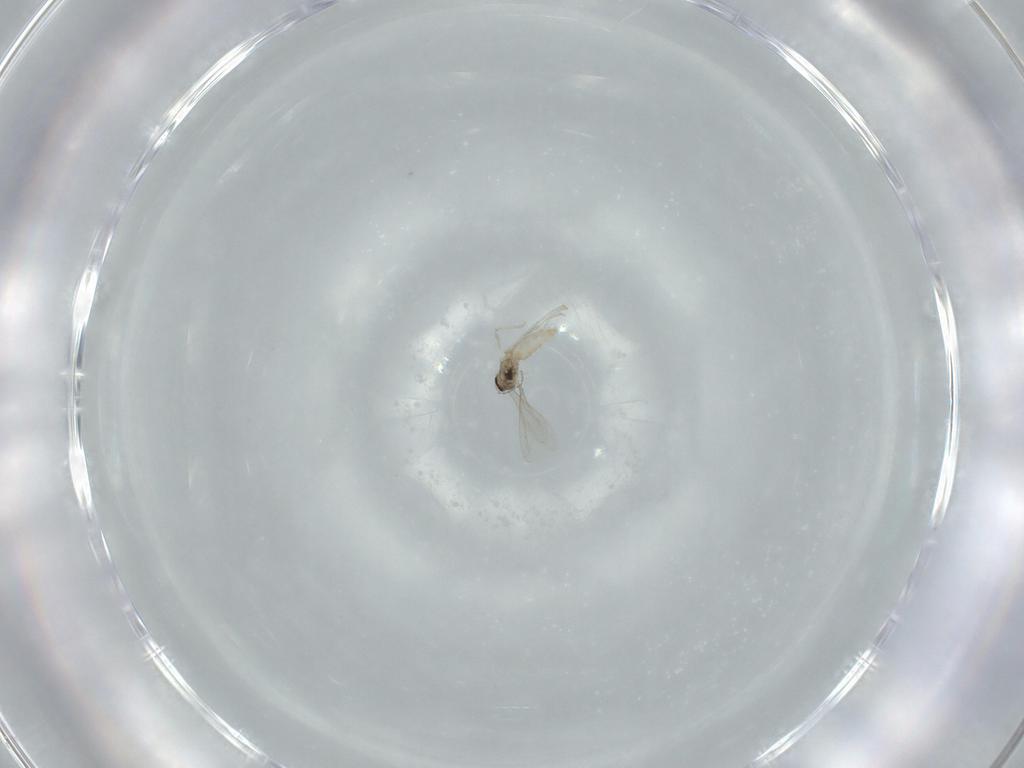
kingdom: Animalia
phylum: Arthropoda
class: Insecta
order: Diptera
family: Cecidomyiidae
